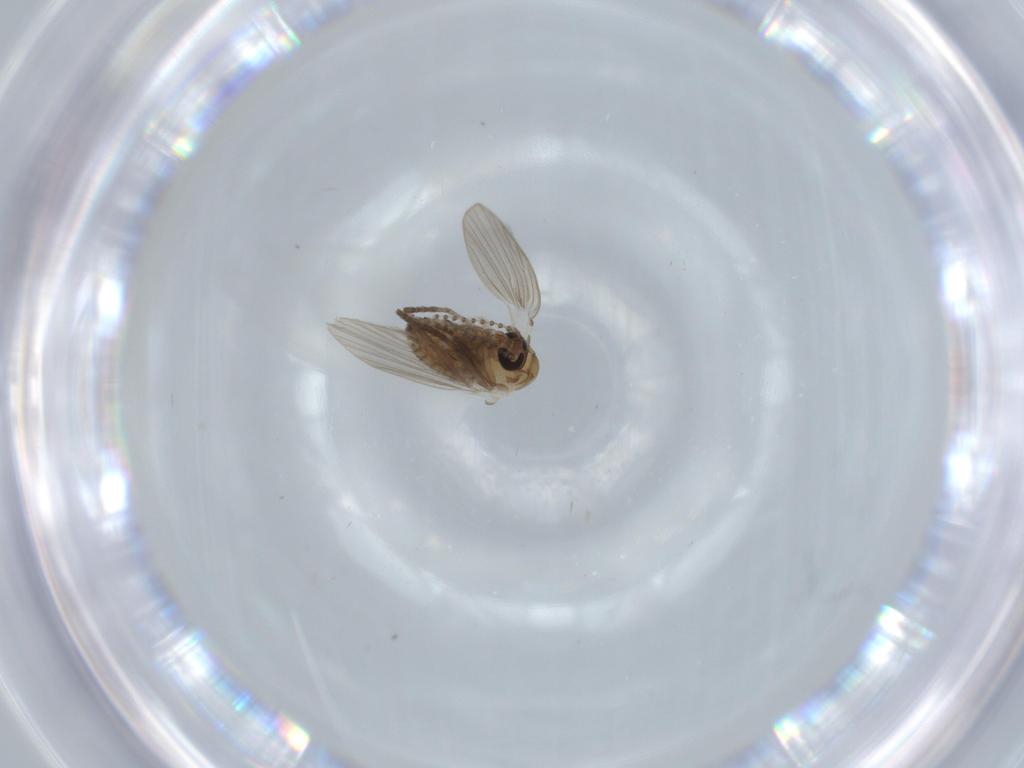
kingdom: Animalia
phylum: Arthropoda
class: Insecta
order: Diptera
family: Psychodidae
